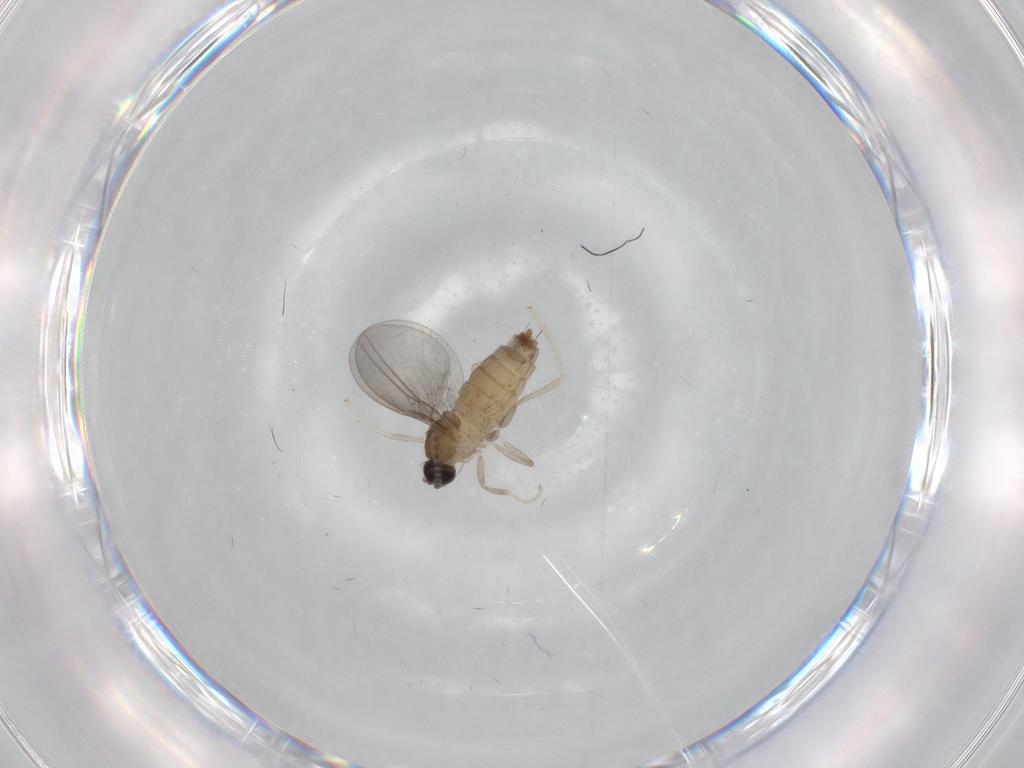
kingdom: Animalia
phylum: Arthropoda
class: Insecta
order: Diptera
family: Cecidomyiidae
